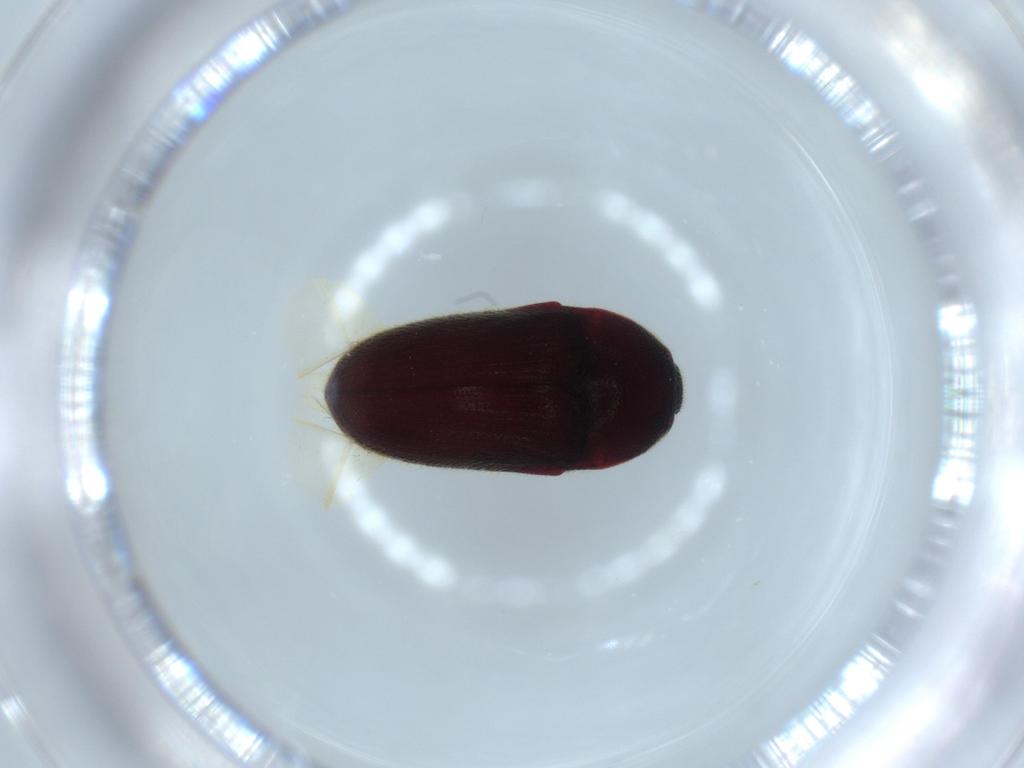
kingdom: Animalia
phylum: Arthropoda
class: Insecta
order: Coleoptera
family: Throscidae
